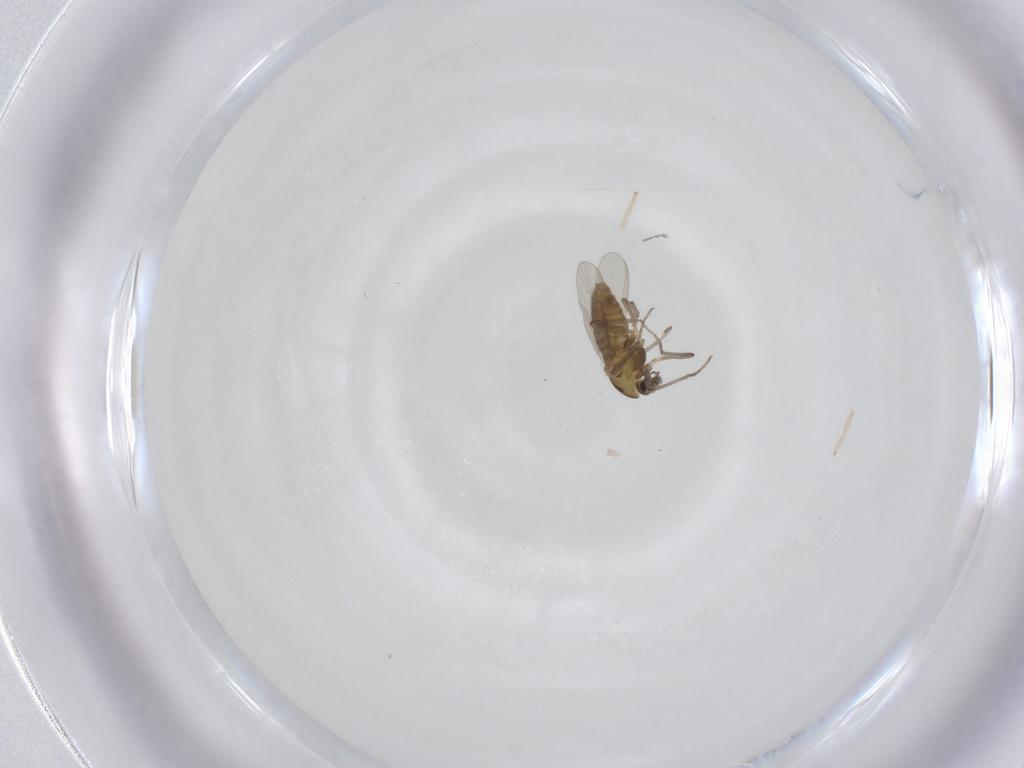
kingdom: Animalia
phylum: Arthropoda
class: Insecta
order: Diptera
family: Chironomidae
